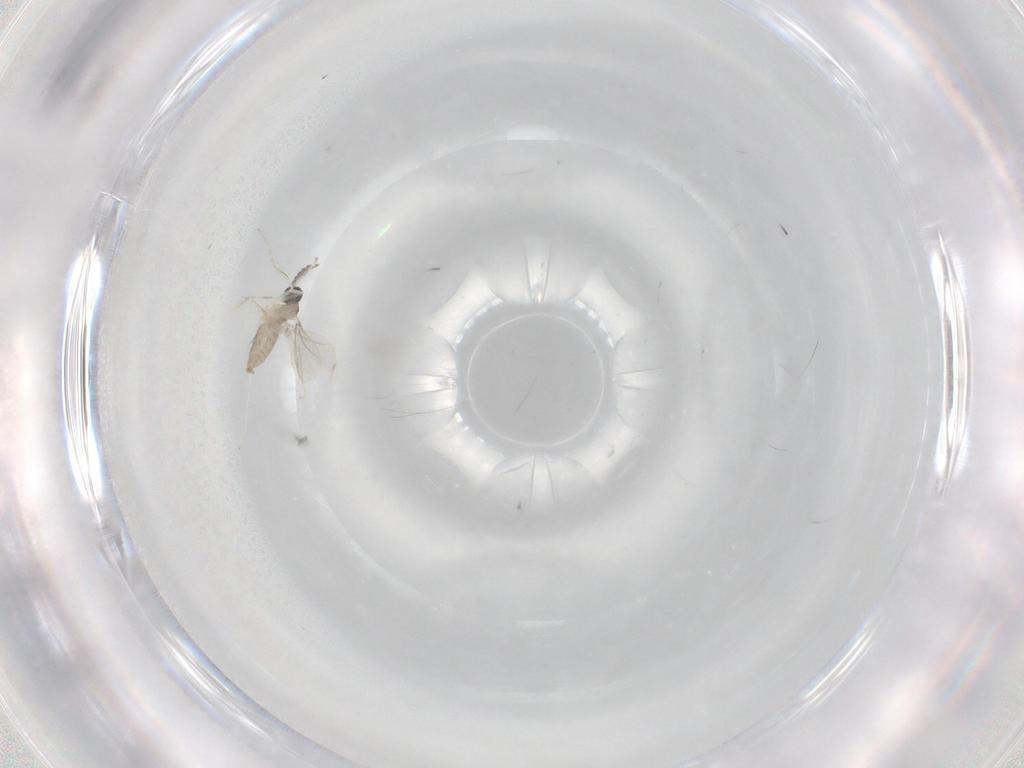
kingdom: Animalia
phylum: Arthropoda
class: Insecta
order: Diptera
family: Cecidomyiidae
